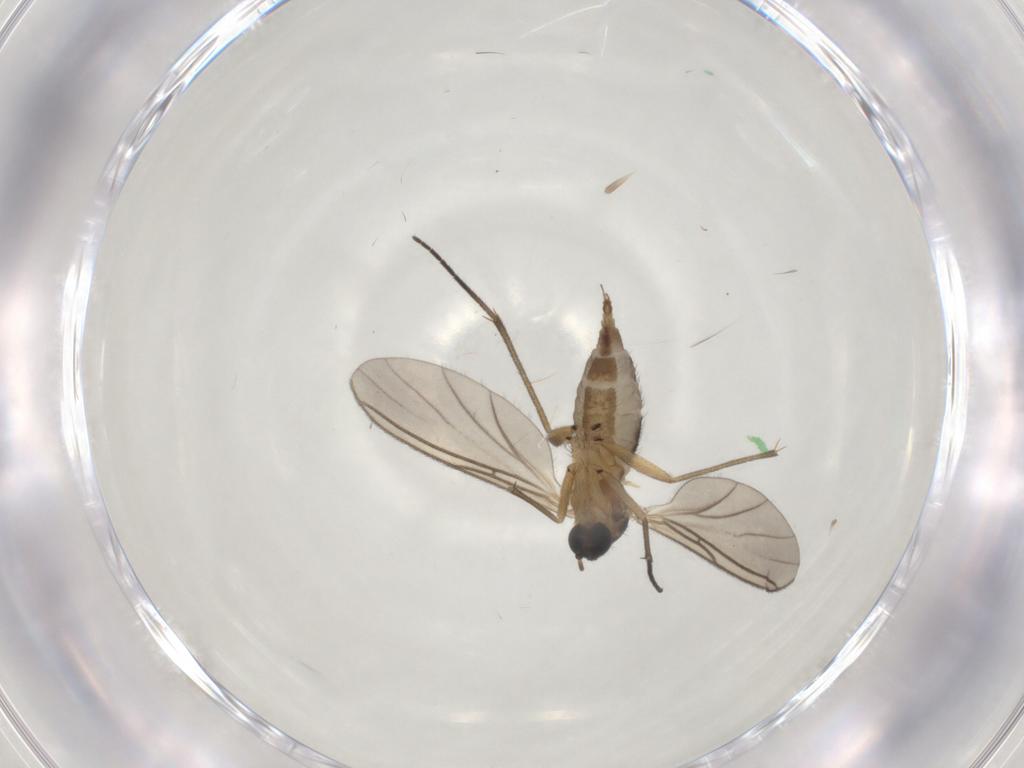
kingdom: Animalia
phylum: Arthropoda
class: Insecta
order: Diptera
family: Sciaridae
